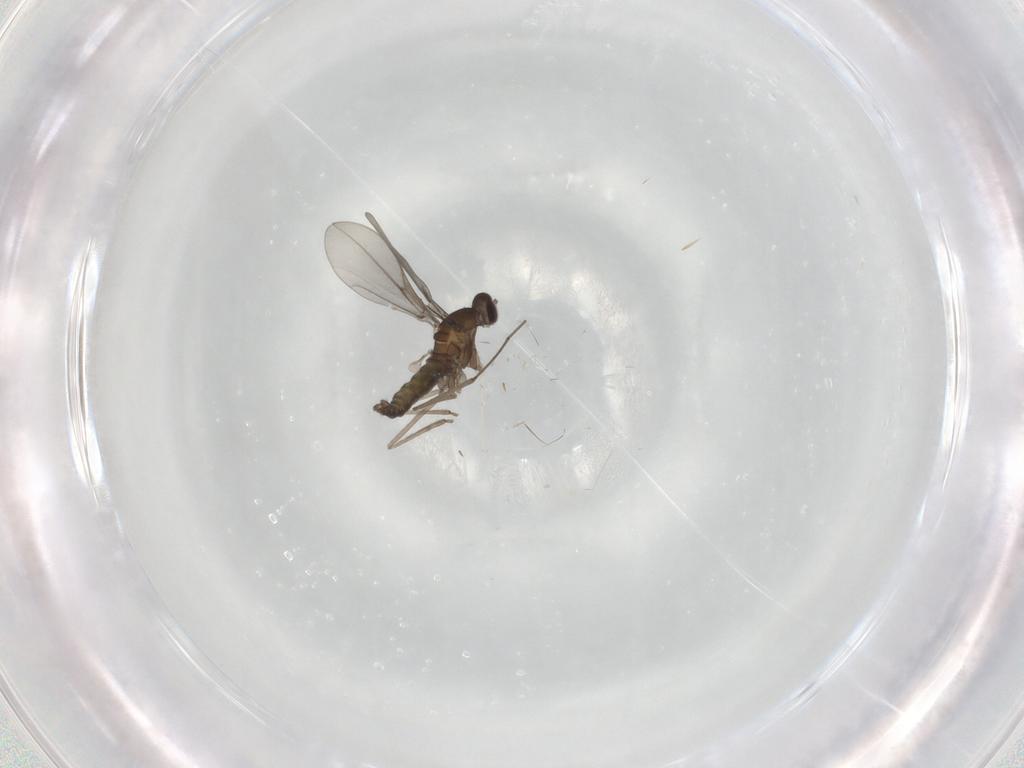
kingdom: Animalia
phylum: Arthropoda
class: Insecta
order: Diptera
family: Cecidomyiidae
